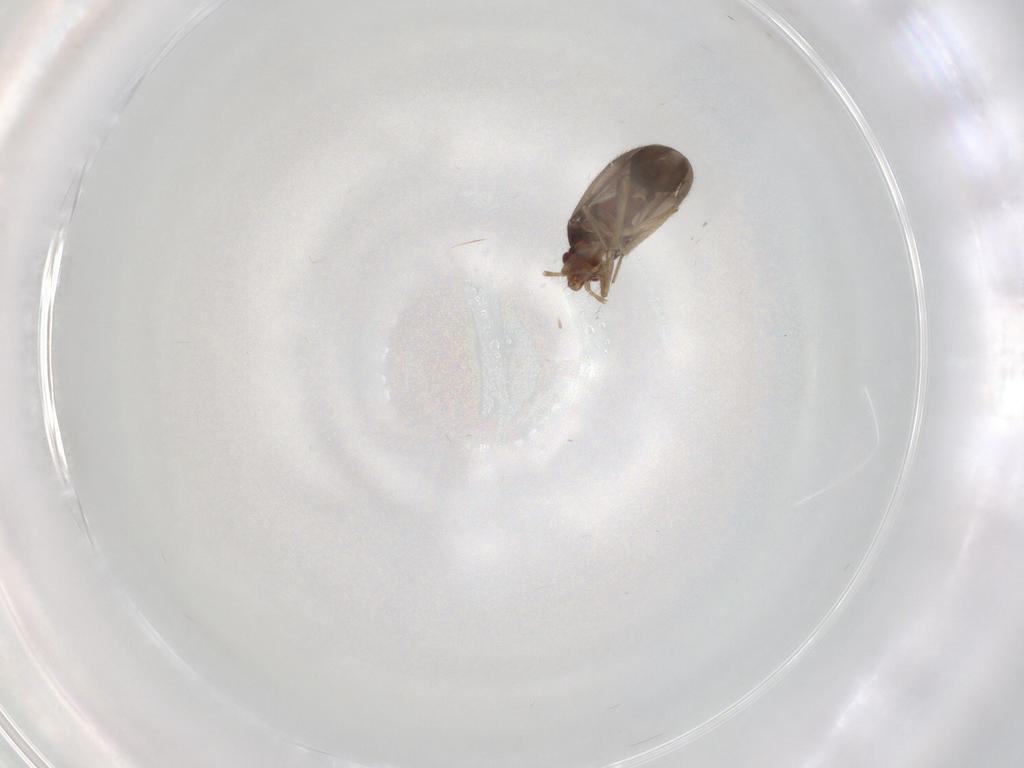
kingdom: Animalia
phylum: Arthropoda
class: Insecta
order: Hemiptera
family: Ceratocombidae
